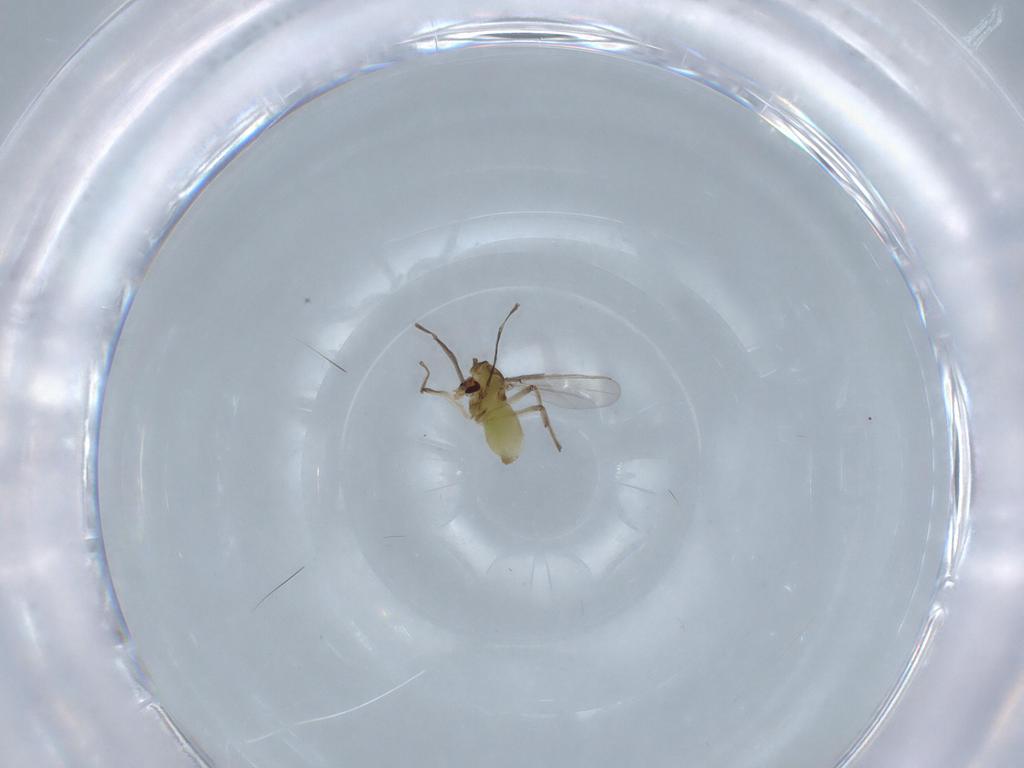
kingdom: Animalia
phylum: Arthropoda
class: Insecta
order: Diptera
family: Chironomidae
